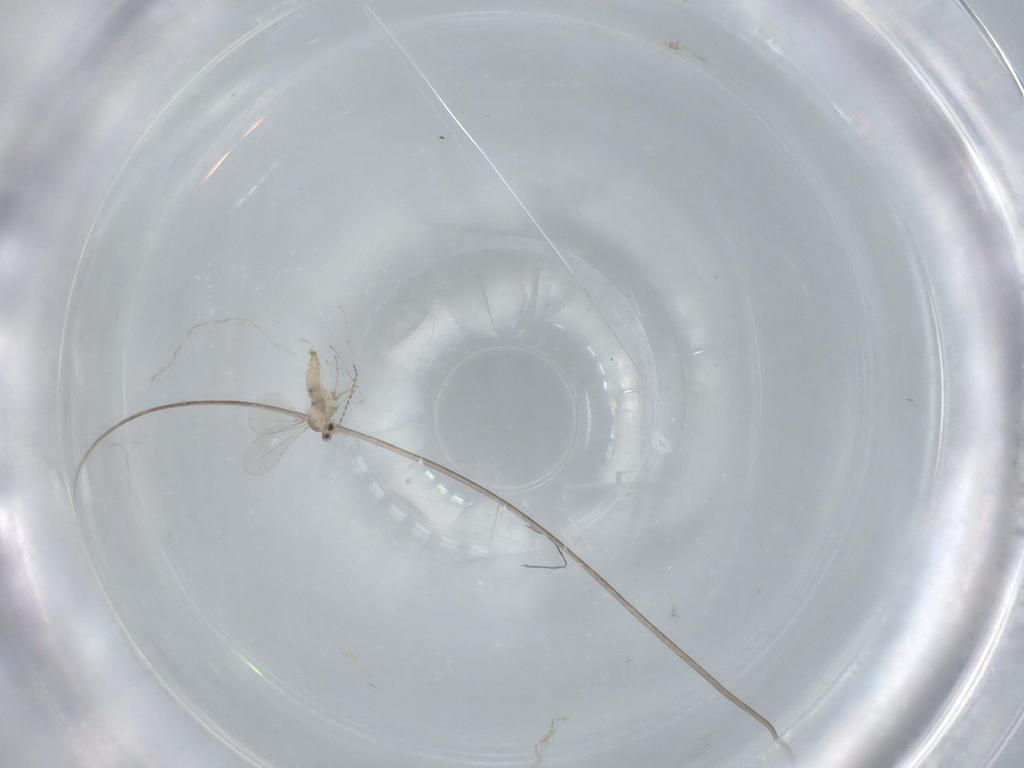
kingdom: Animalia
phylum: Arthropoda
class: Insecta
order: Diptera
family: Cecidomyiidae
